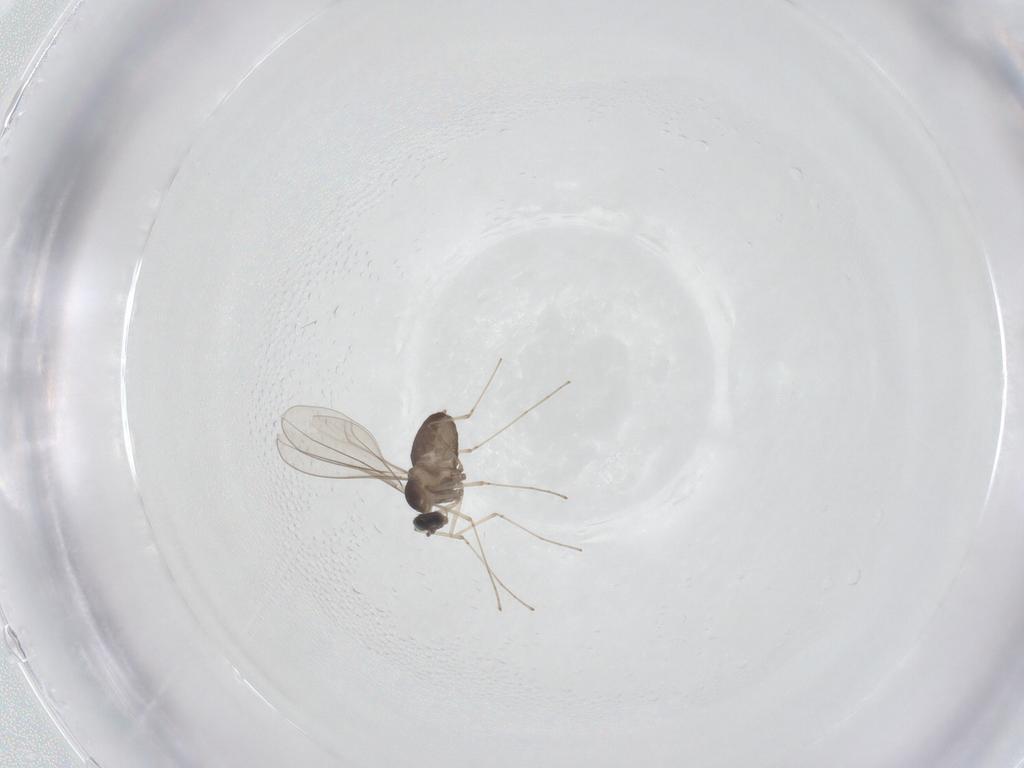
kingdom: Animalia
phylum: Arthropoda
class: Insecta
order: Diptera
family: Cecidomyiidae
